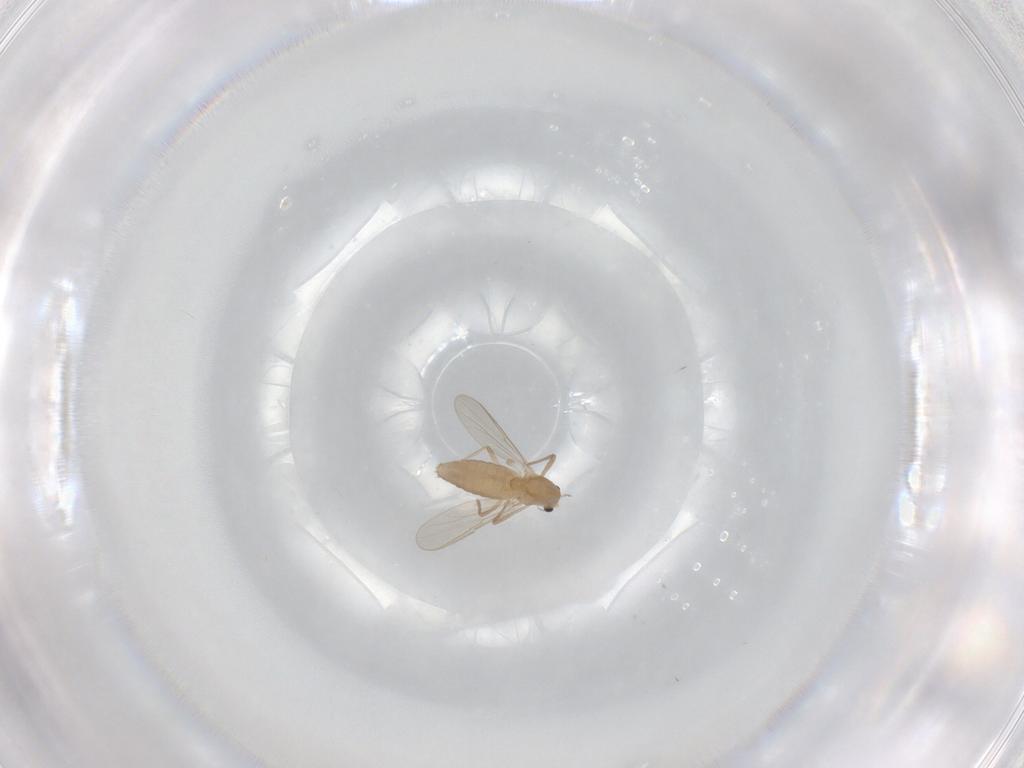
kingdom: Animalia
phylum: Arthropoda
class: Insecta
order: Diptera
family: Chironomidae
